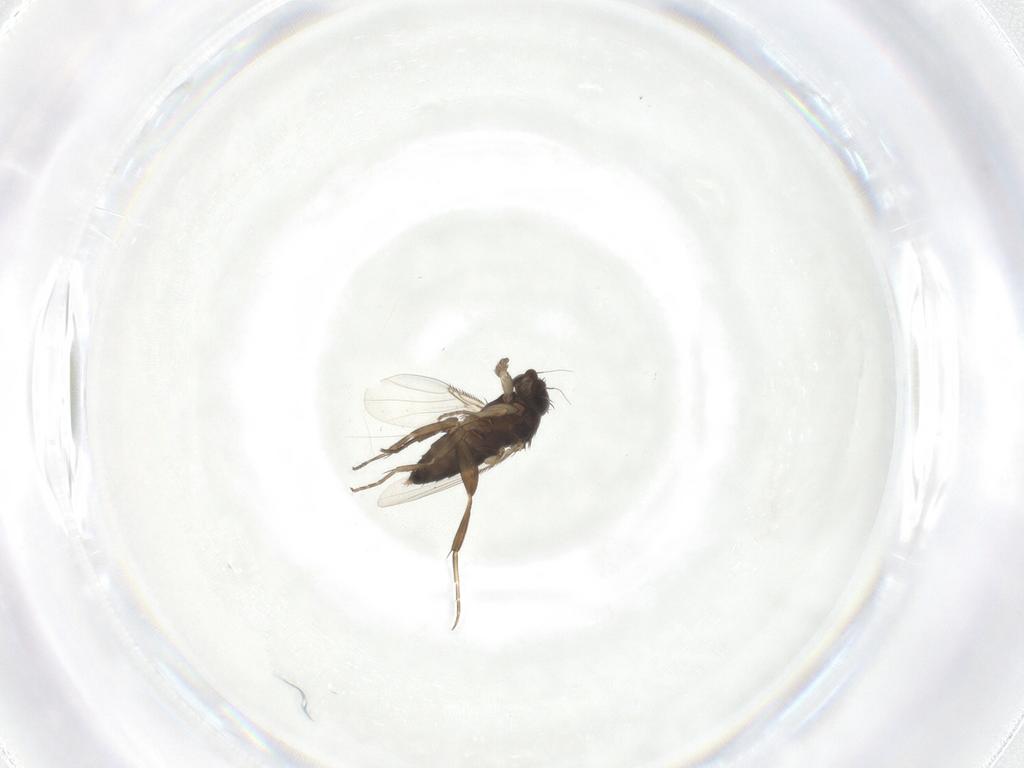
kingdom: Animalia
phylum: Arthropoda
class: Insecta
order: Diptera
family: Phoridae
